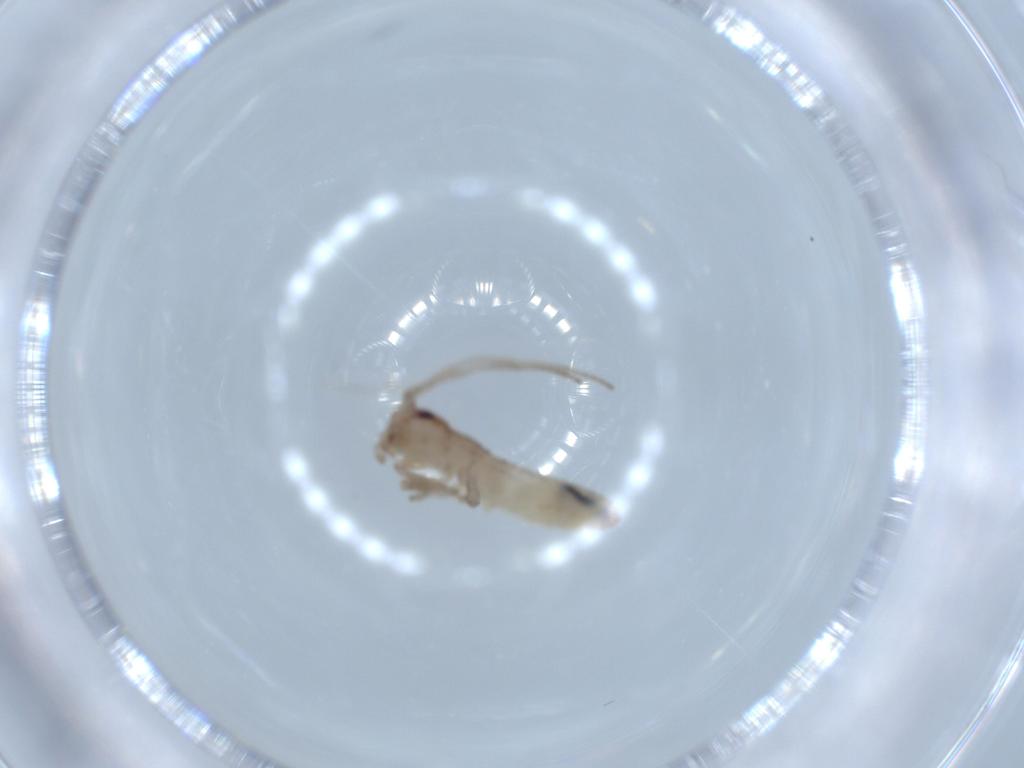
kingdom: Animalia
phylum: Arthropoda
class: Insecta
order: Orthoptera
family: Mogoplistidae
